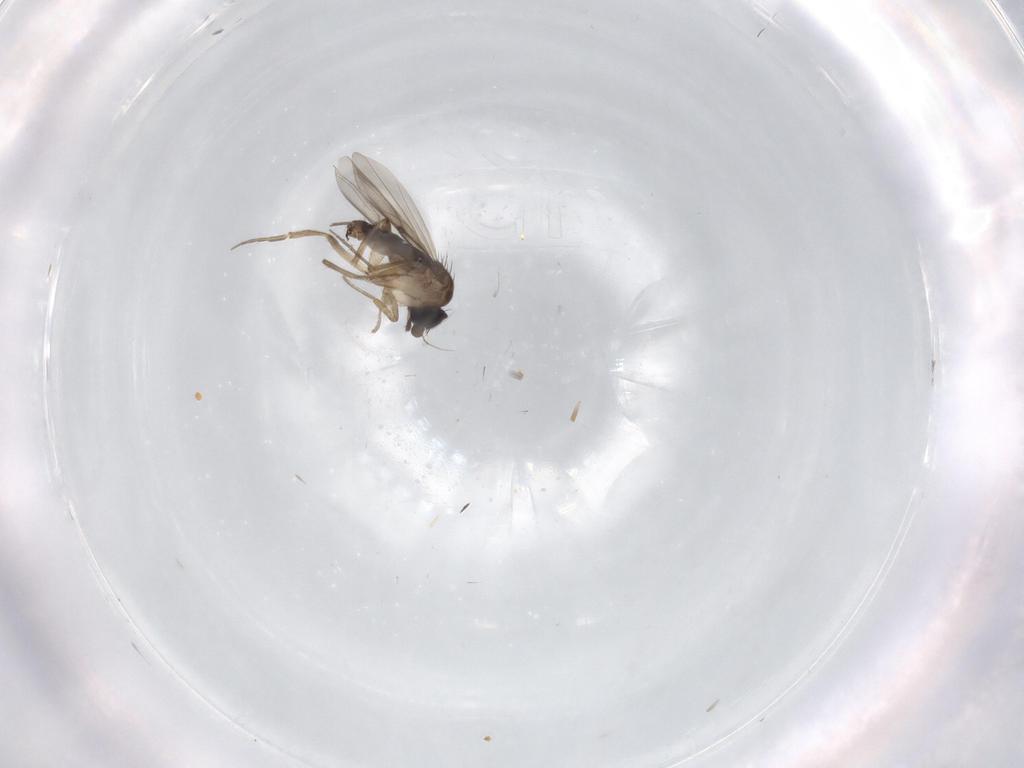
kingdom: Animalia
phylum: Arthropoda
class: Insecta
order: Diptera
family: Phoridae
